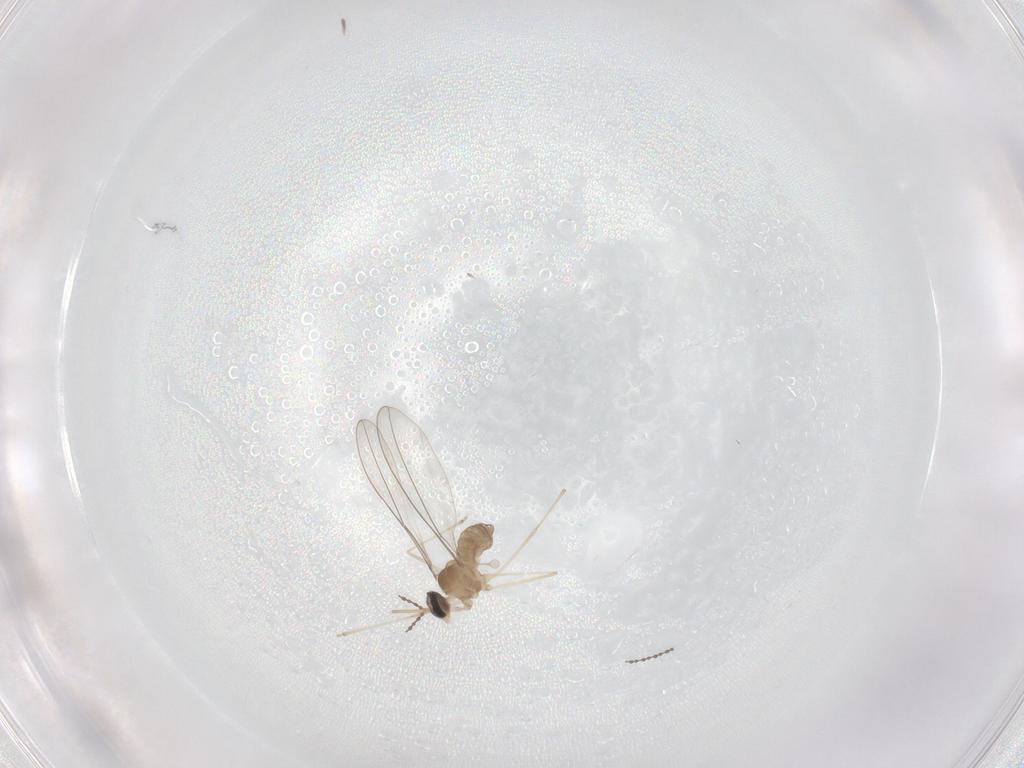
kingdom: Animalia
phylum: Arthropoda
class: Insecta
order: Diptera
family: Cecidomyiidae
